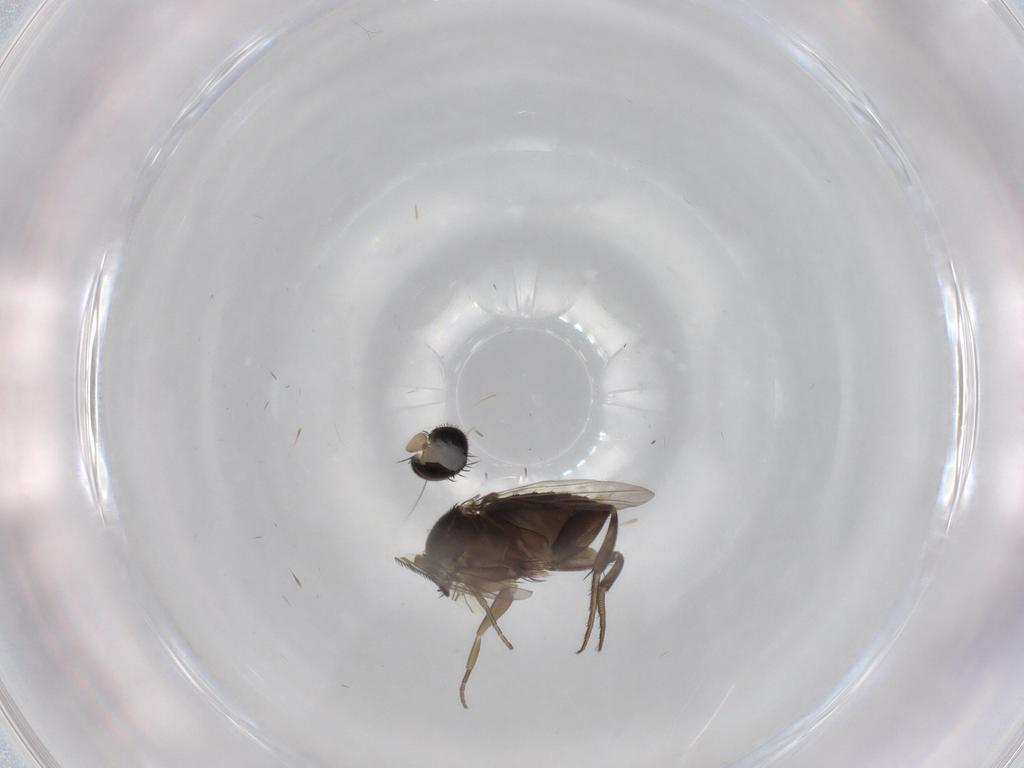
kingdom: Animalia
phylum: Arthropoda
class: Insecta
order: Diptera
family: Phoridae
